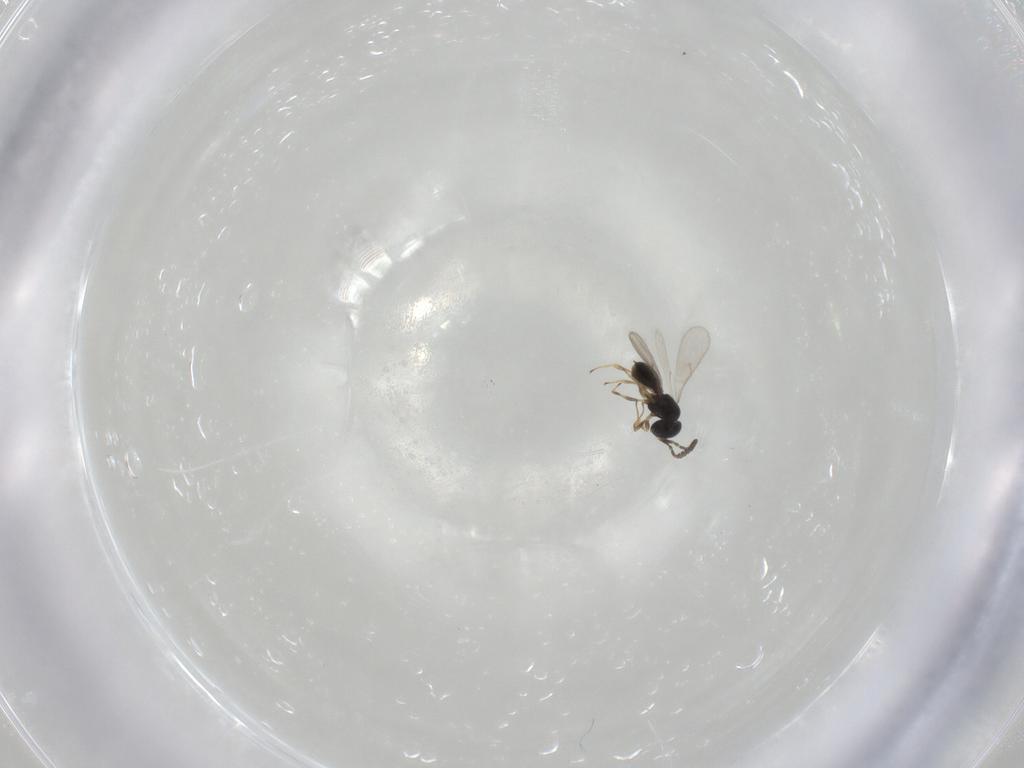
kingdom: Animalia
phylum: Arthropoda
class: Insecta
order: Hymenoptera
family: Scelionidae
